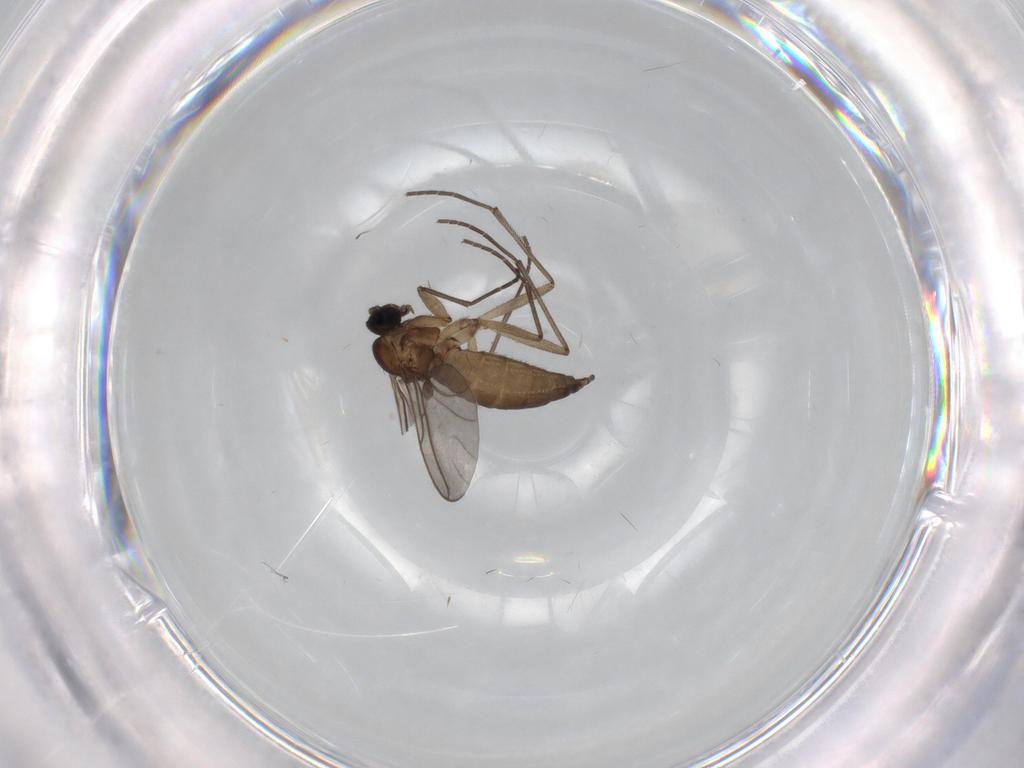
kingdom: Animalia
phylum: Arthropoda
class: Insecta
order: Diptera
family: Sciaridae
